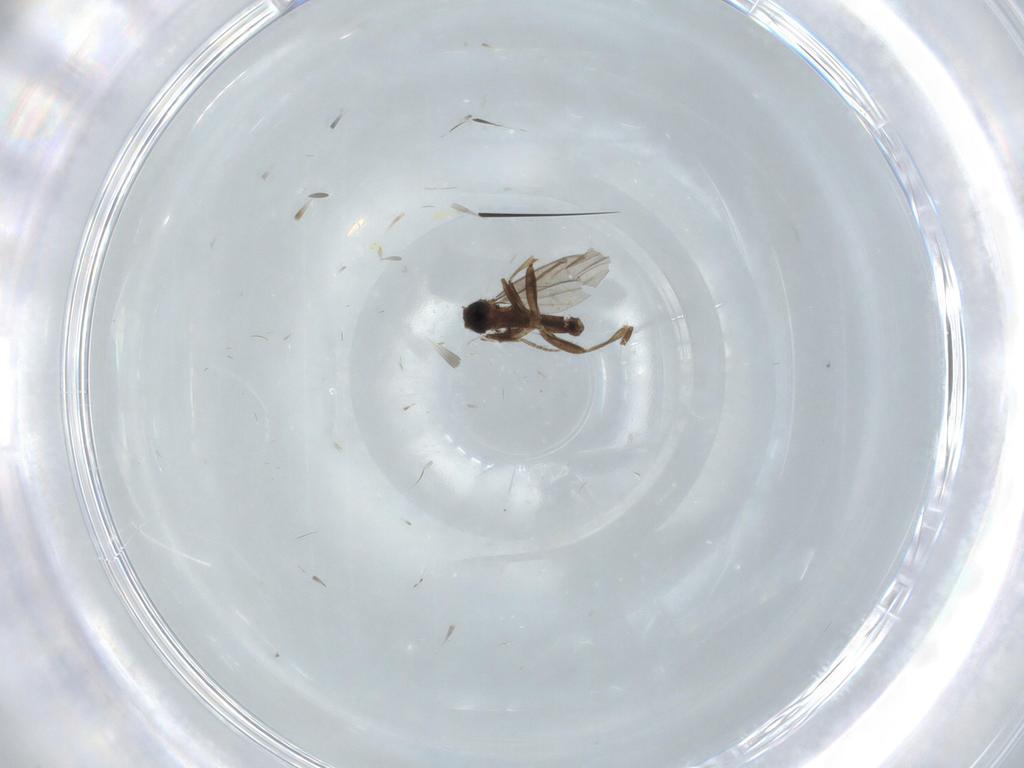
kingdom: Animalia
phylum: Arthropoda
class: Insecta
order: Diptera
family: Phoridae
